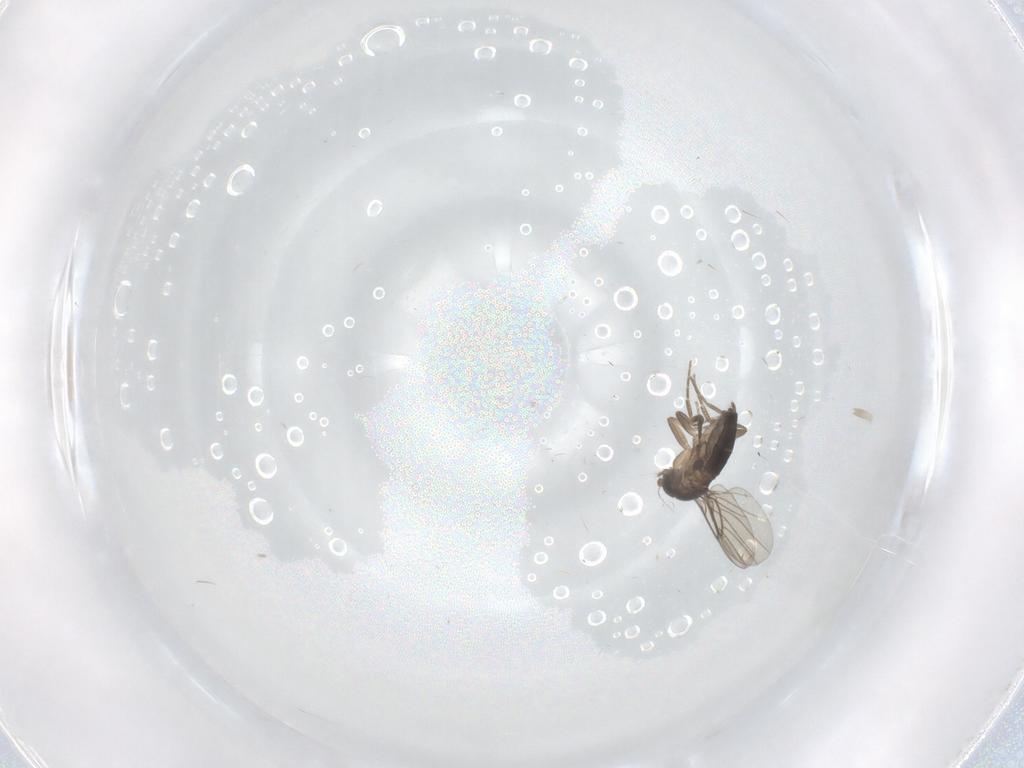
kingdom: Animalia
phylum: Arthropoda
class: Insecta
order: Diptera
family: Phoridae
